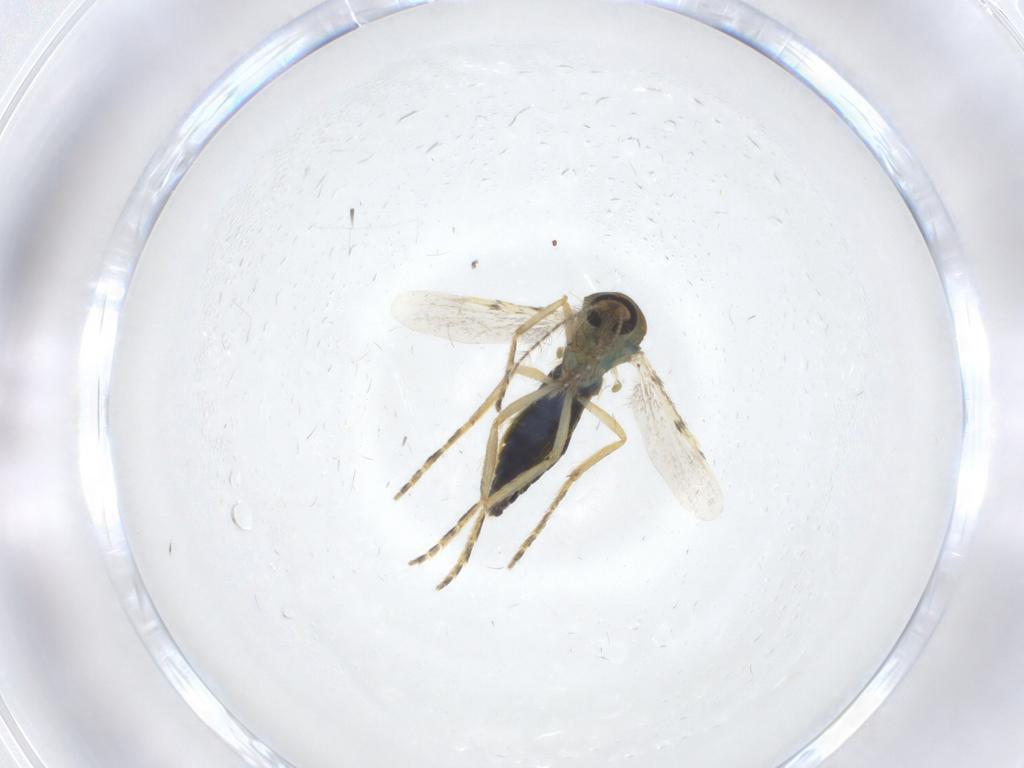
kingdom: Animalia
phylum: Arthropoda
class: Insecta
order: Diptera
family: Ceratopogonidae
